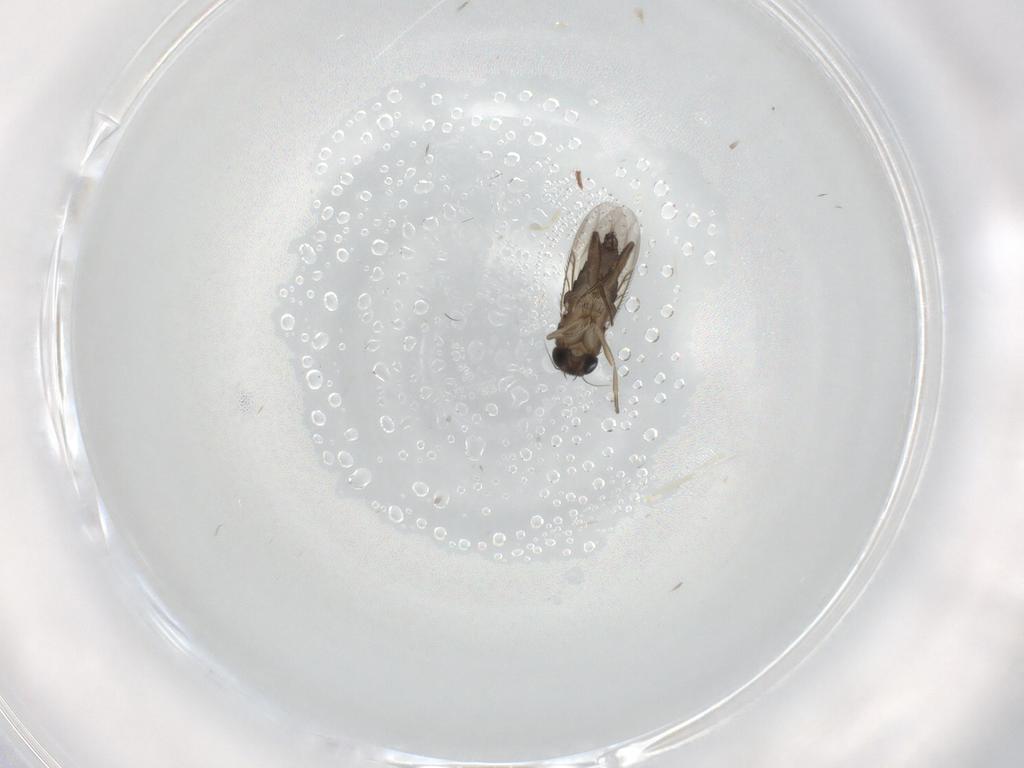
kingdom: Animalia
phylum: Arthropoda
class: Insecta
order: Diptera
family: Phoridae
